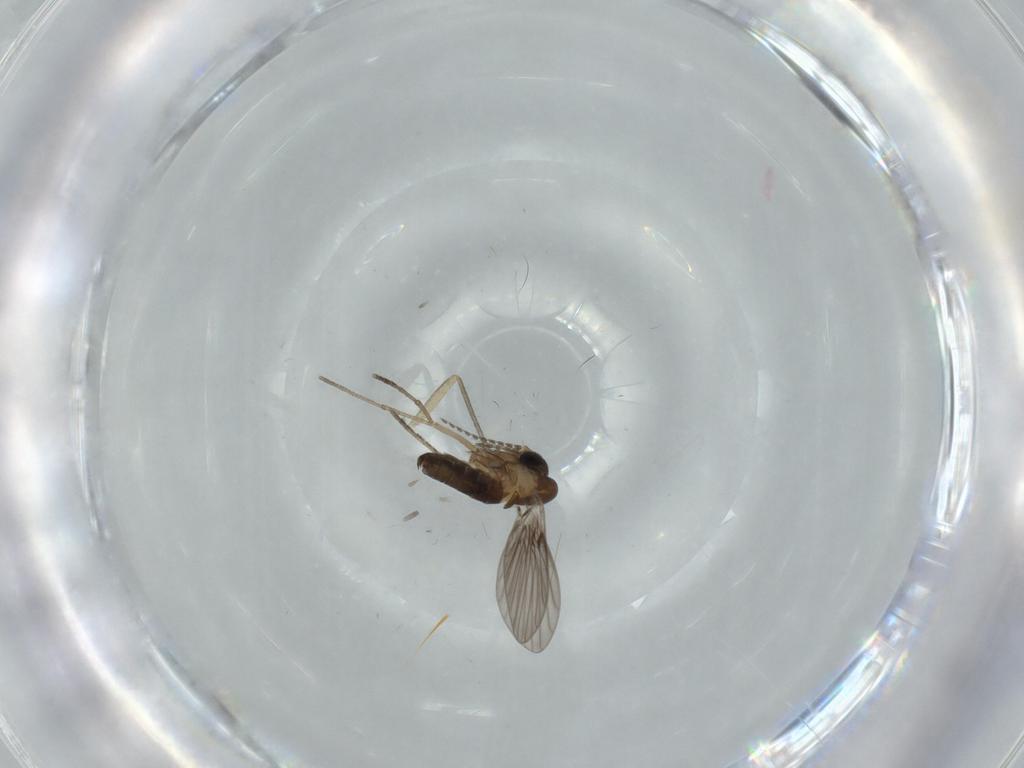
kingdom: Animalia
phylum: Arthropoda
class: Insecta
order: Diptera
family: Psychodidae
